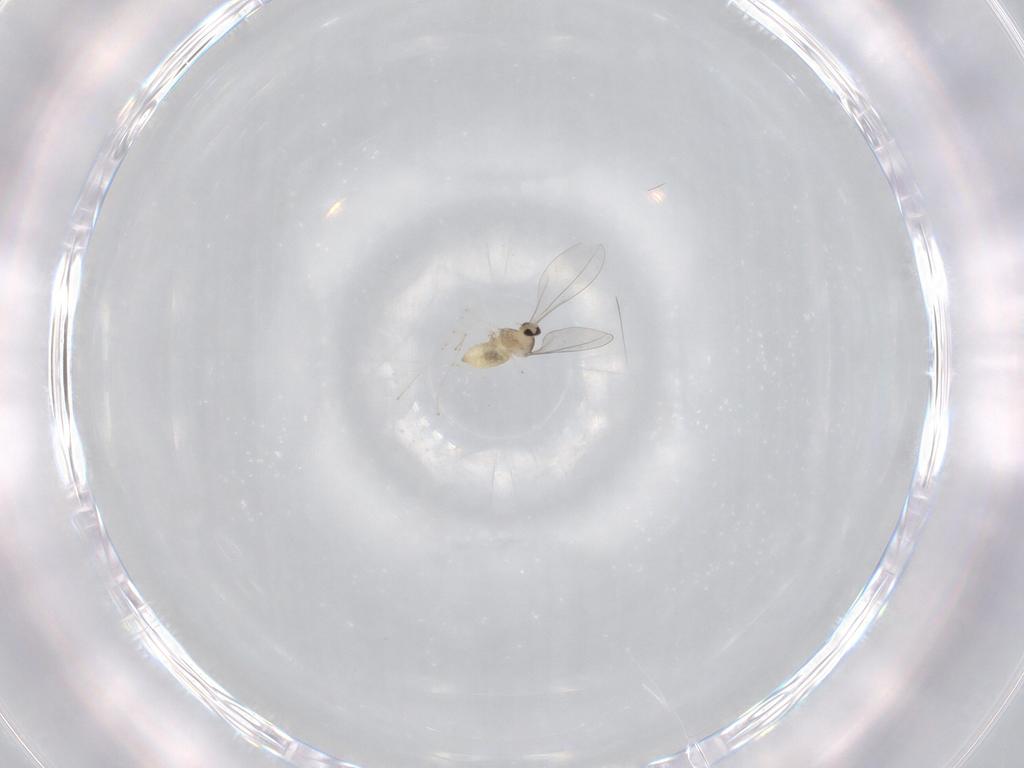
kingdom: Animalia
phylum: Arthropoda
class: Insecta
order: Diptera
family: Cecidomyiidae
